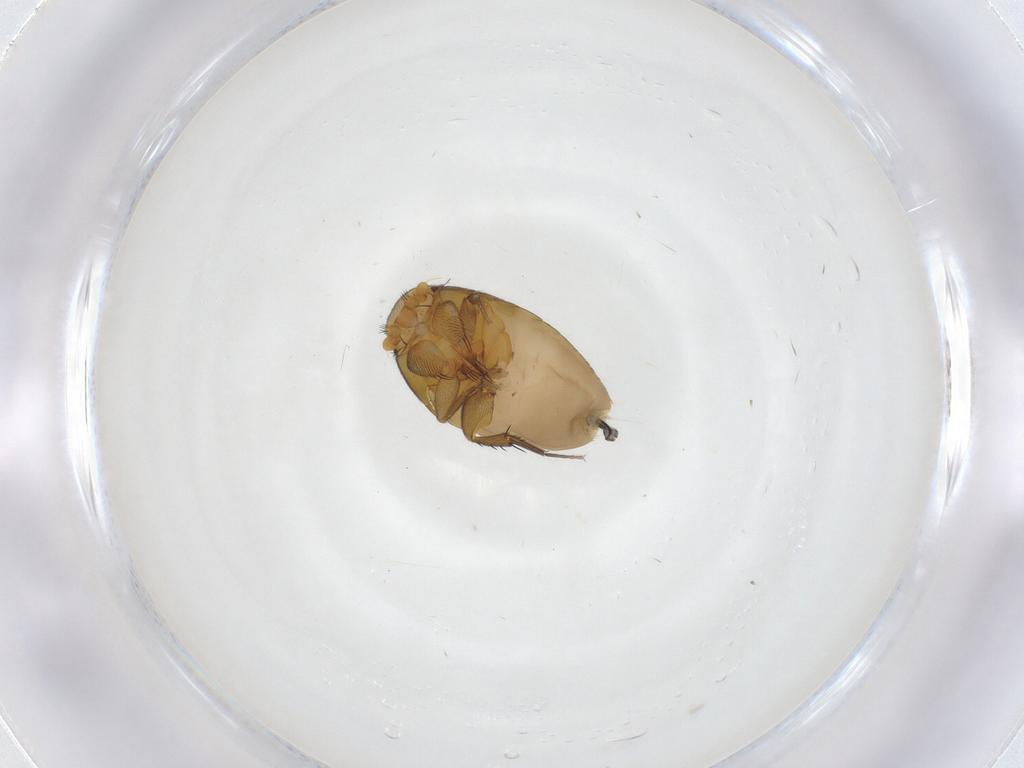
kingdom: Animalia
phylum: Arthropoda
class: Insecta
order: Diptera
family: Phoridae
